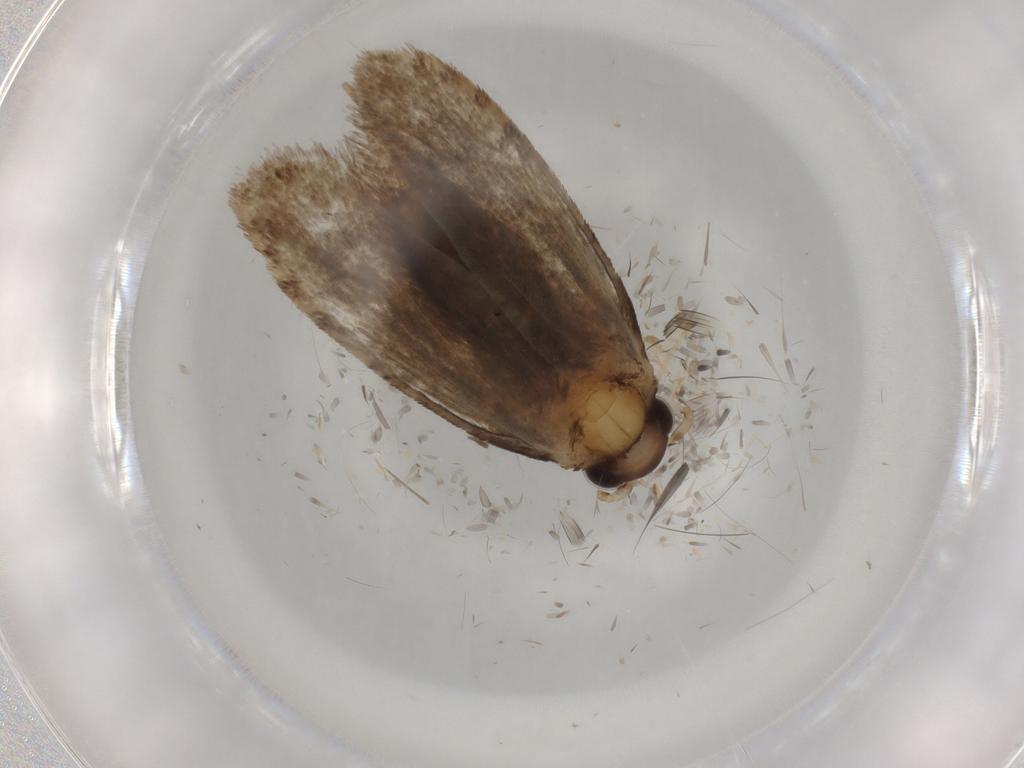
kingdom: Animalia
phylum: Arthropoda
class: Insecta
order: Lepidoptera
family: Tineidae
